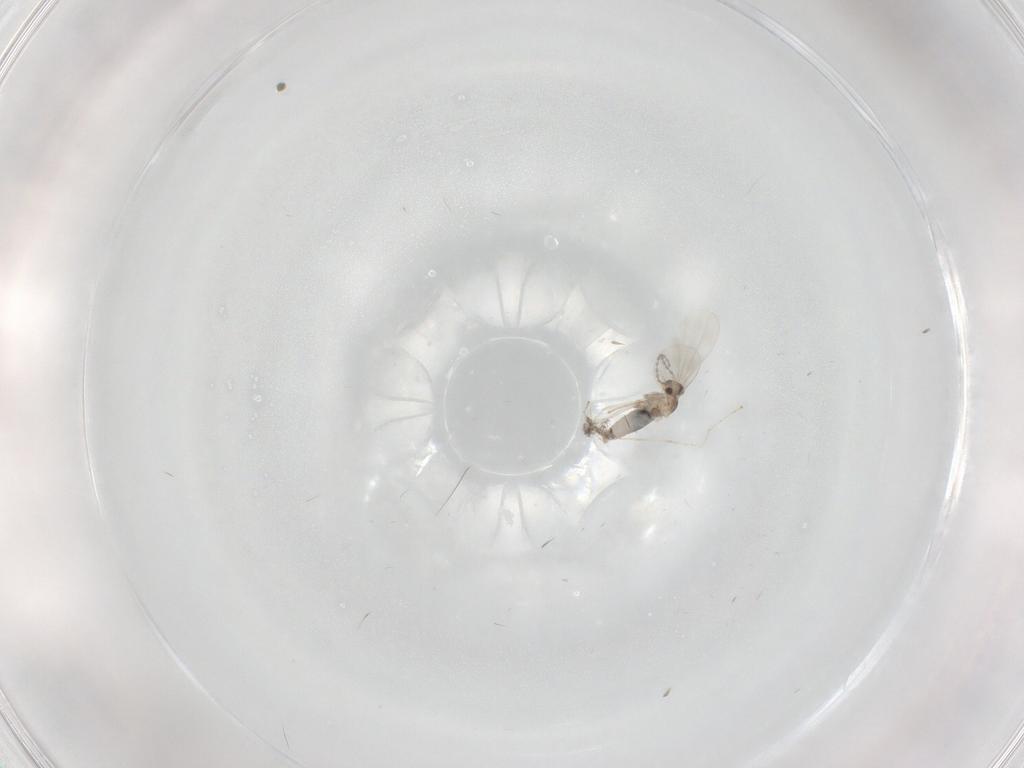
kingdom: Animalia
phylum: Arthropoda
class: Insecta
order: Diptera
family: Cecidomyiidae
